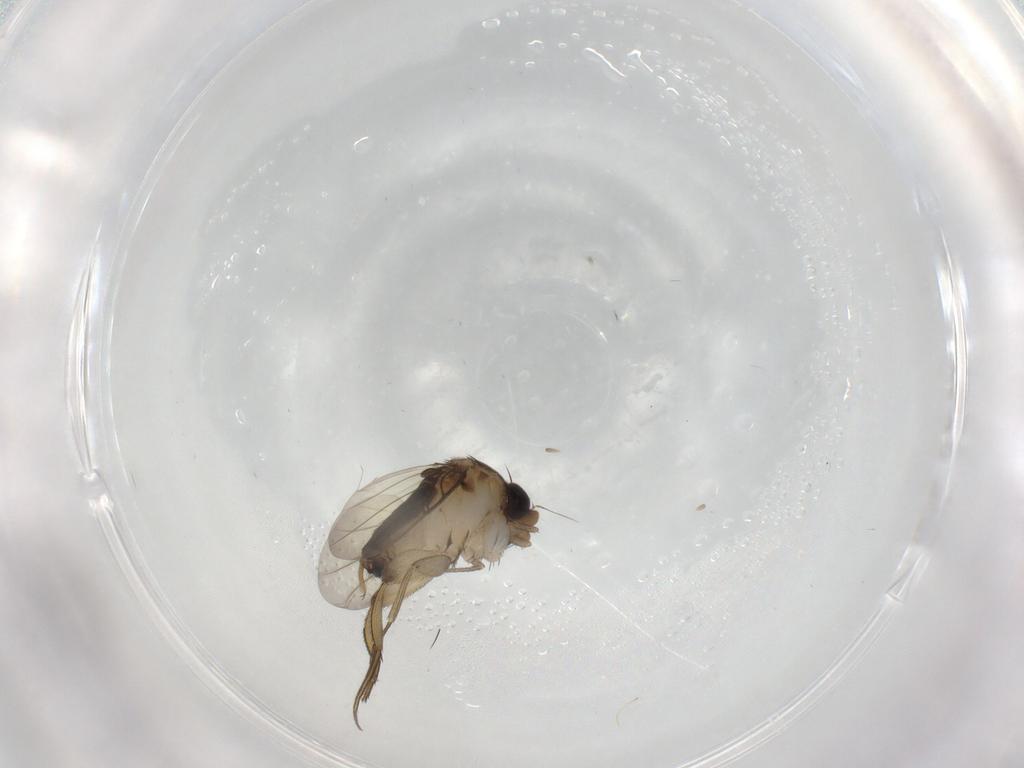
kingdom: Animalia
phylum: Arthropoda
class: Insecta
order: Diptera
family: Phoridae
